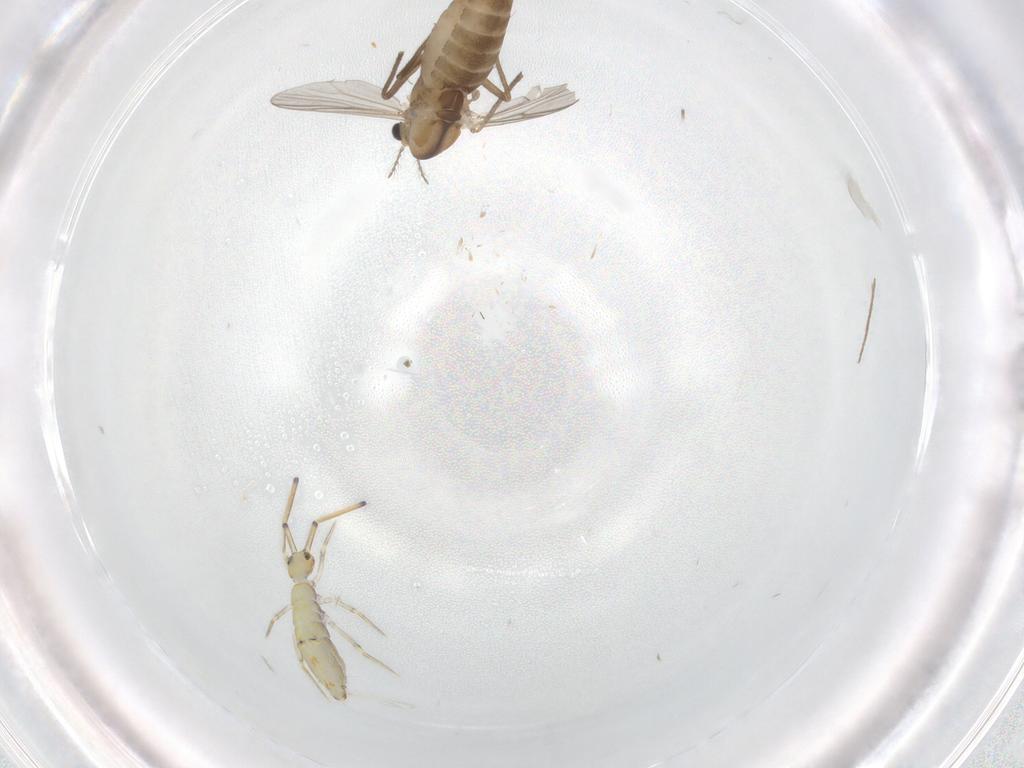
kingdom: Animalia
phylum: Arthropoda
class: Insecta
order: Diptera
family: Chironomidae
